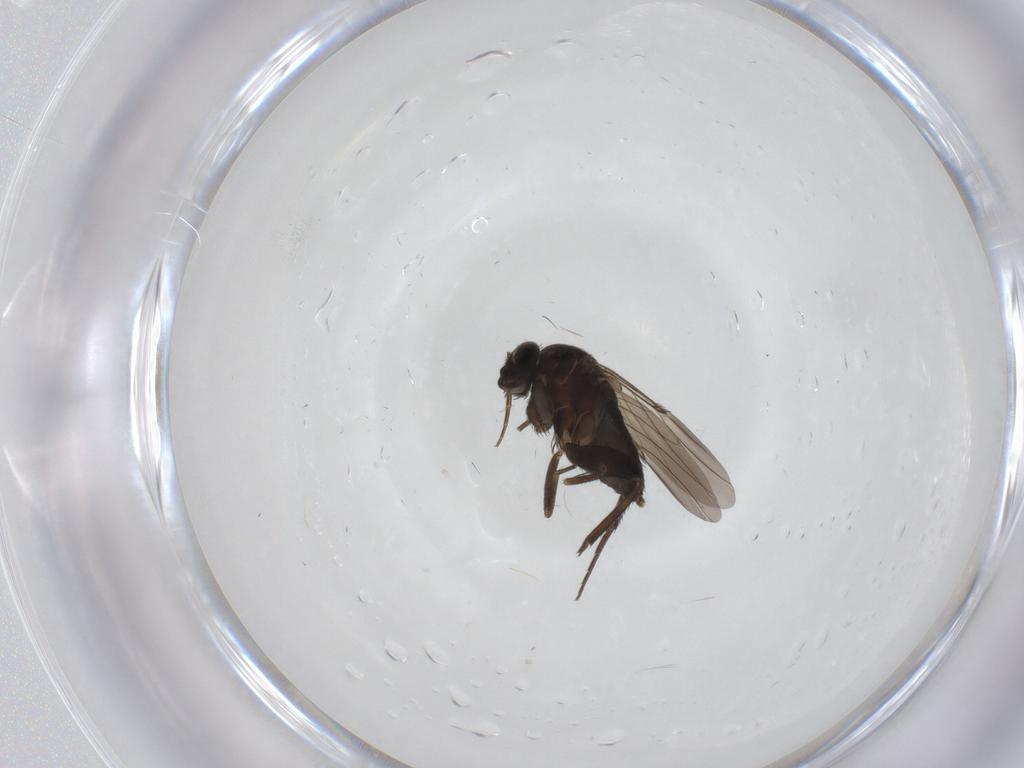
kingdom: Animalia
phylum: Arthropoda
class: Insecta
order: Diptera
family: Phoridae
